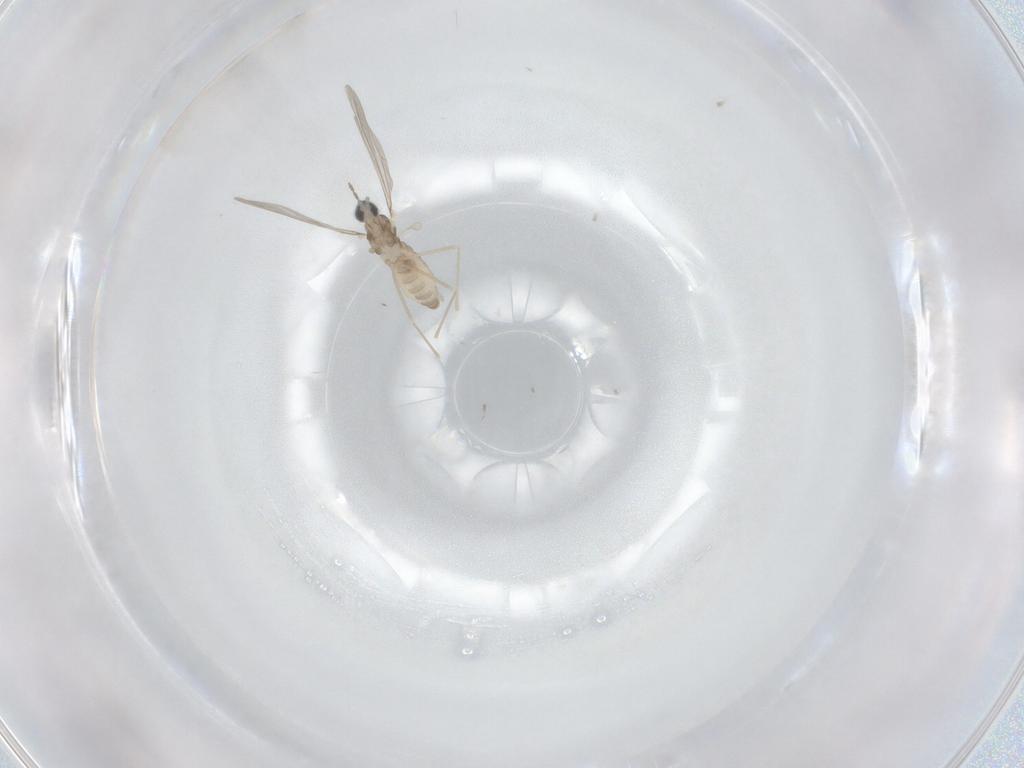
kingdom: Animalia
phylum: Arthropoda
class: Insecta
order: Diptera
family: Cecidomyiidae
